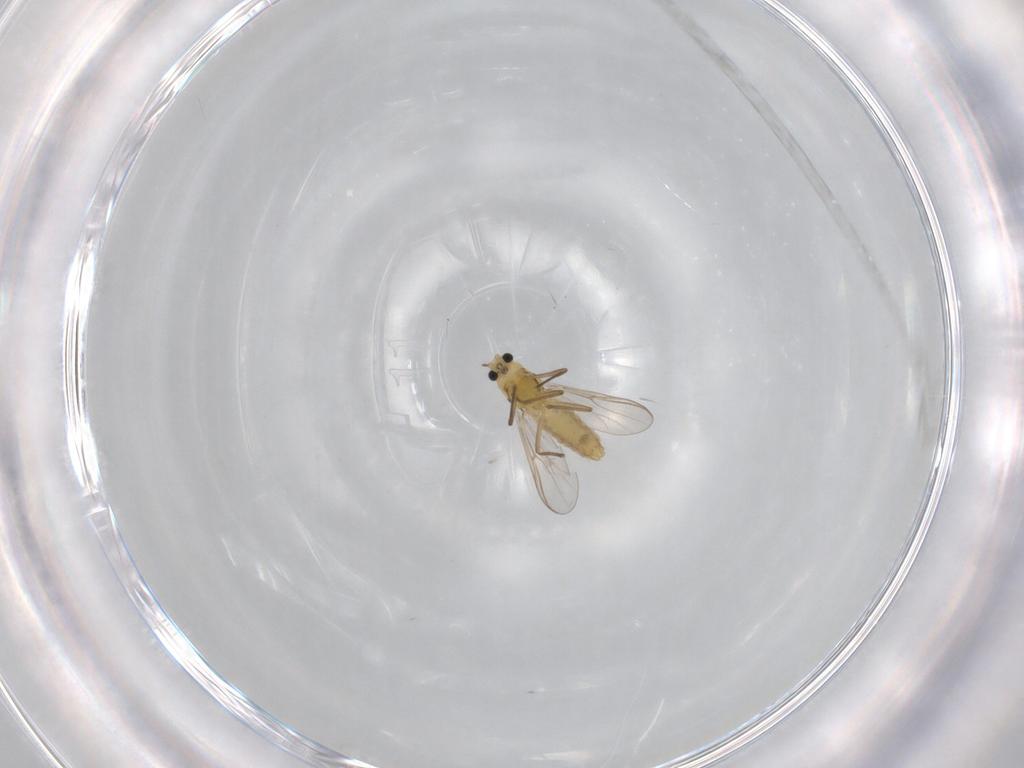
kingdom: Animalia
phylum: Arthropoda
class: Insecta
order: Diptera
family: Chironomidae
